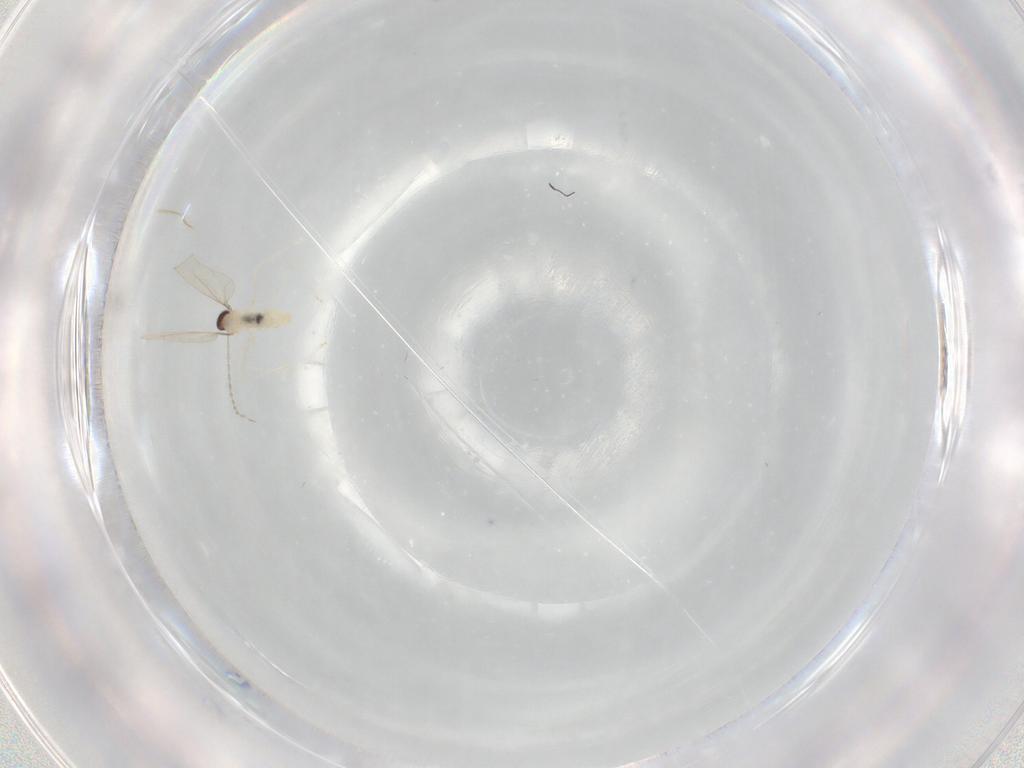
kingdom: Animalia
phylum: Arthropoda
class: Insecta
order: Diptera
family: Cecidomyiidae
